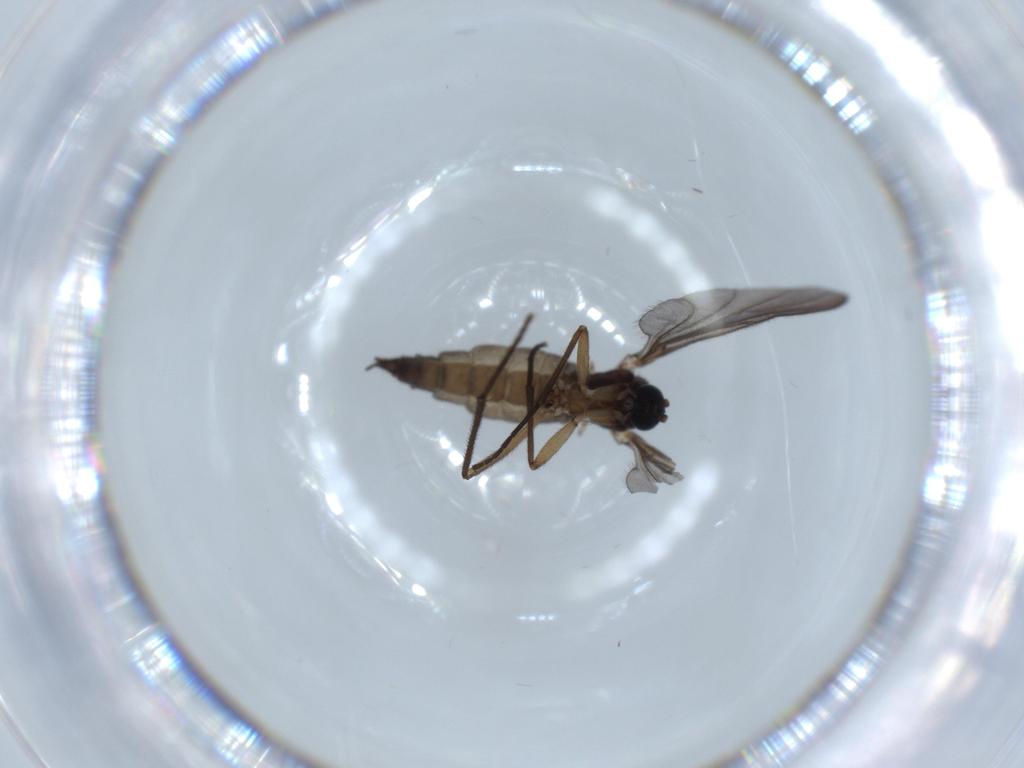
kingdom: Animalia
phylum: Arthropoda
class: Insecta
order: Diptera
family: Sciaridae
